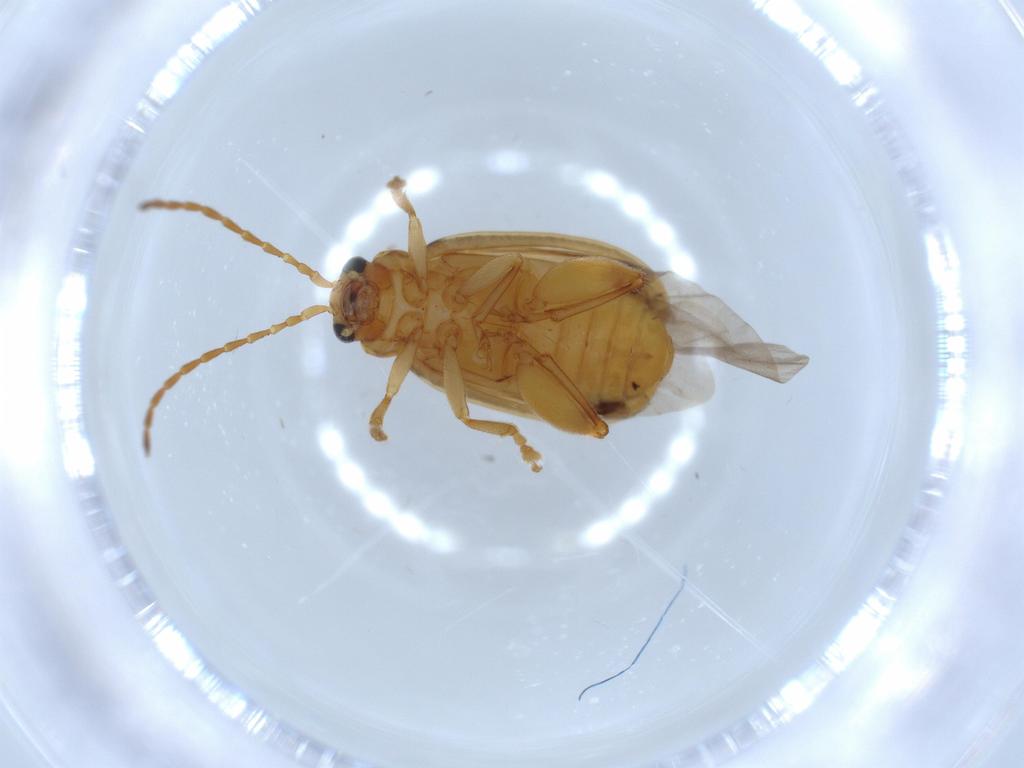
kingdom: Animalia
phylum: Arthropoda
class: Insecta
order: Coleoptera
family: Chrysomelidae
